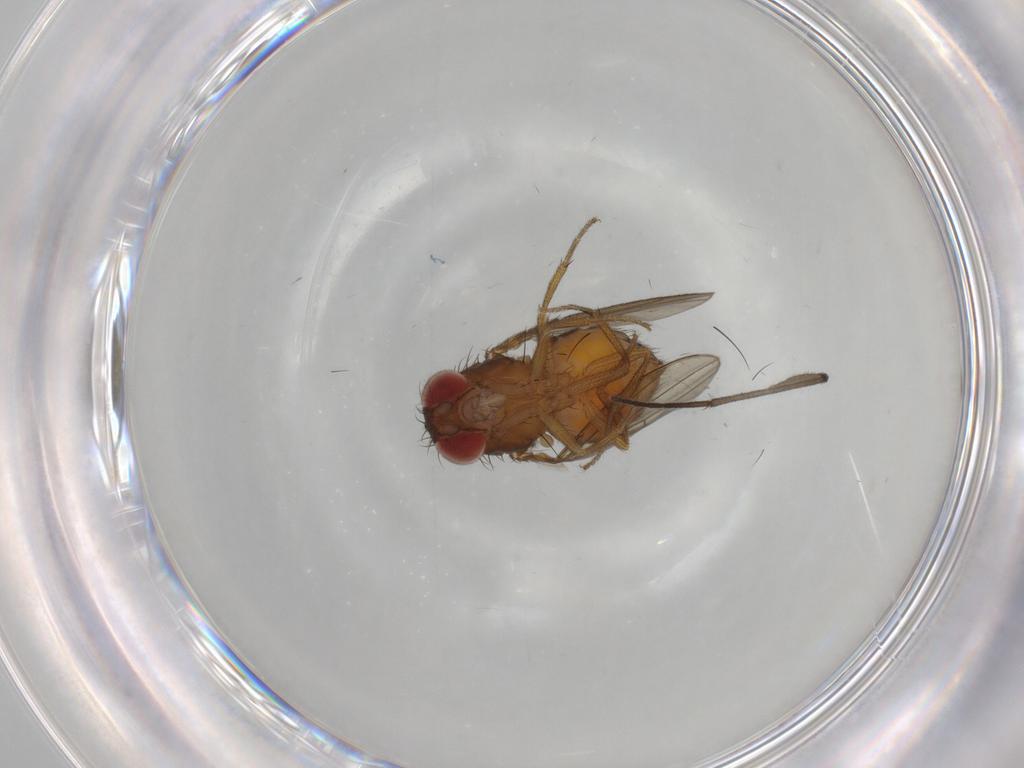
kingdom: Animalia
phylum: Arthropoda
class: Insecta
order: Diptera
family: Drosophilidae
